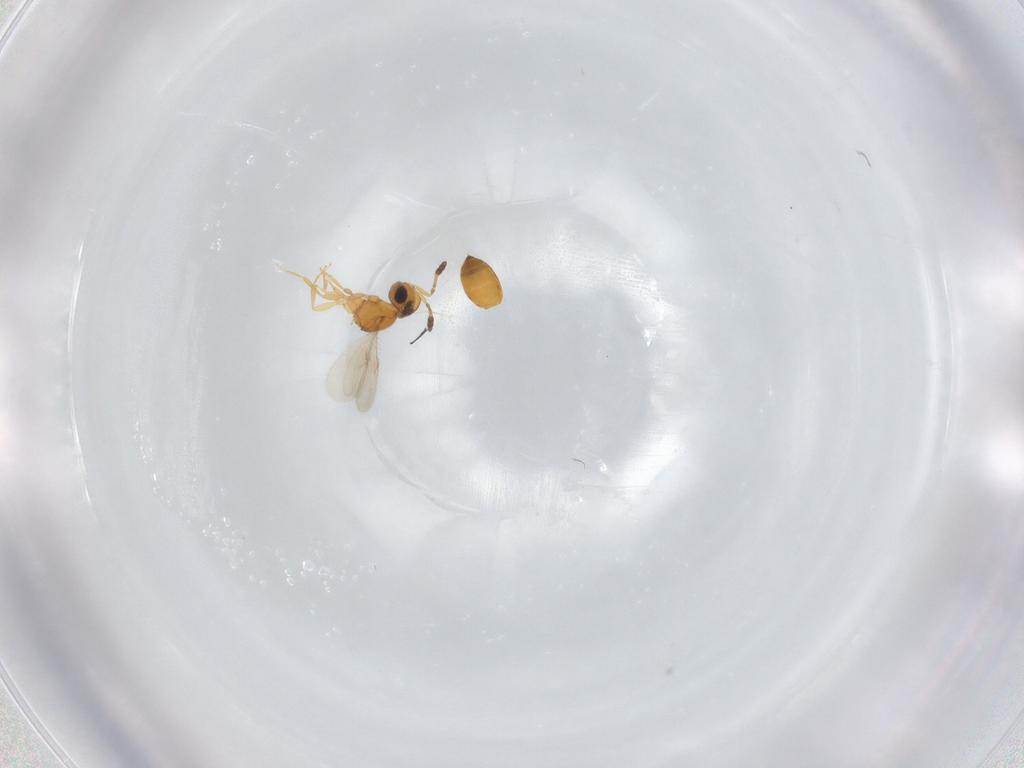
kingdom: Animalia
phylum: Arthropoda
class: Insecta
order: Hymenoptera
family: Scelionidae
